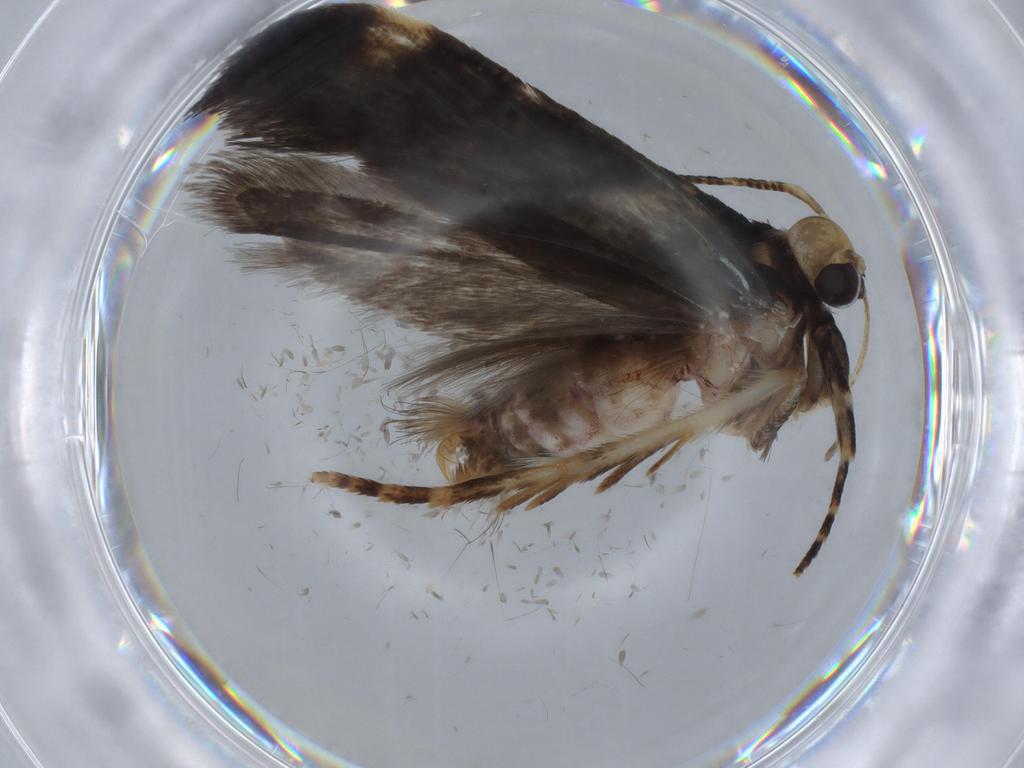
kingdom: Animalia
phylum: Arthropoda
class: Insecta
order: Lepidoptera
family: Gelechiidae
